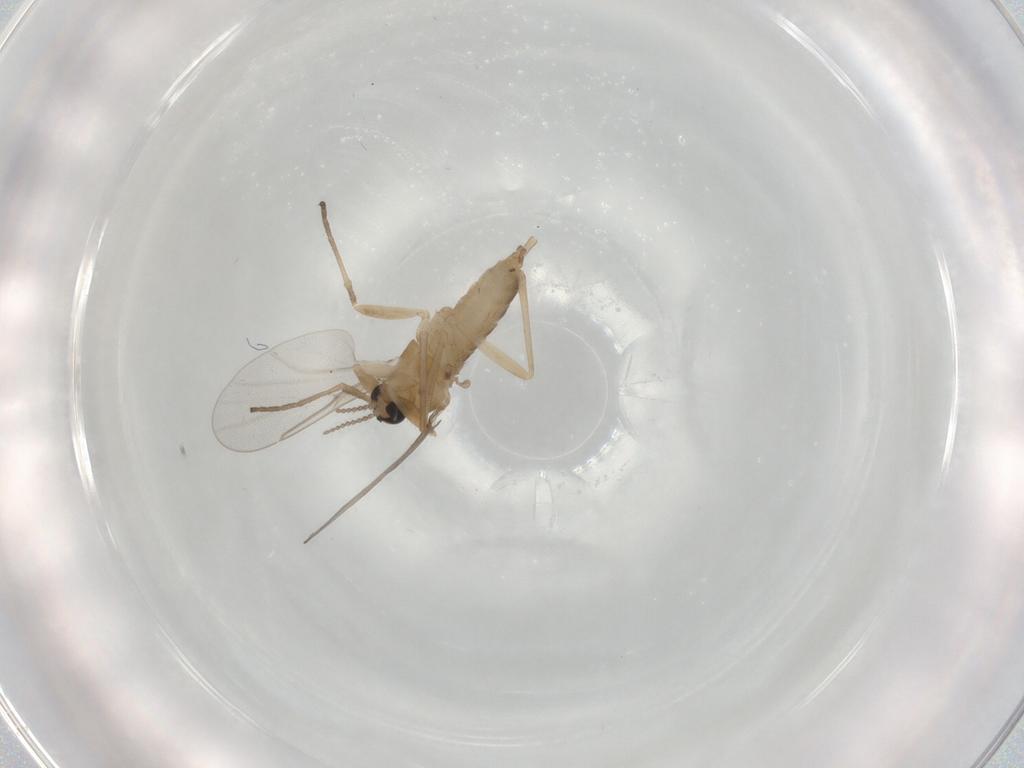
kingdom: Animalia
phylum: Arthropoda
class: Insecta
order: Diptera
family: Cecidomyiidae
